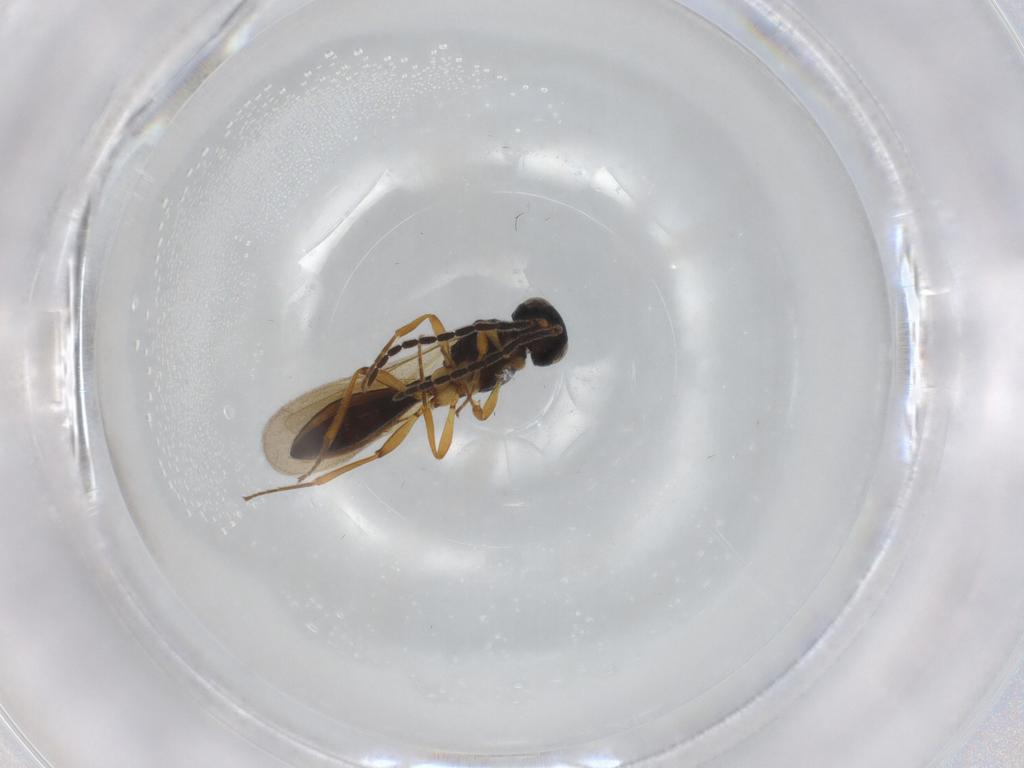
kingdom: Animalia
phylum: Arthropoda
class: Insecta
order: Hymenoptera
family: Scelionidae
